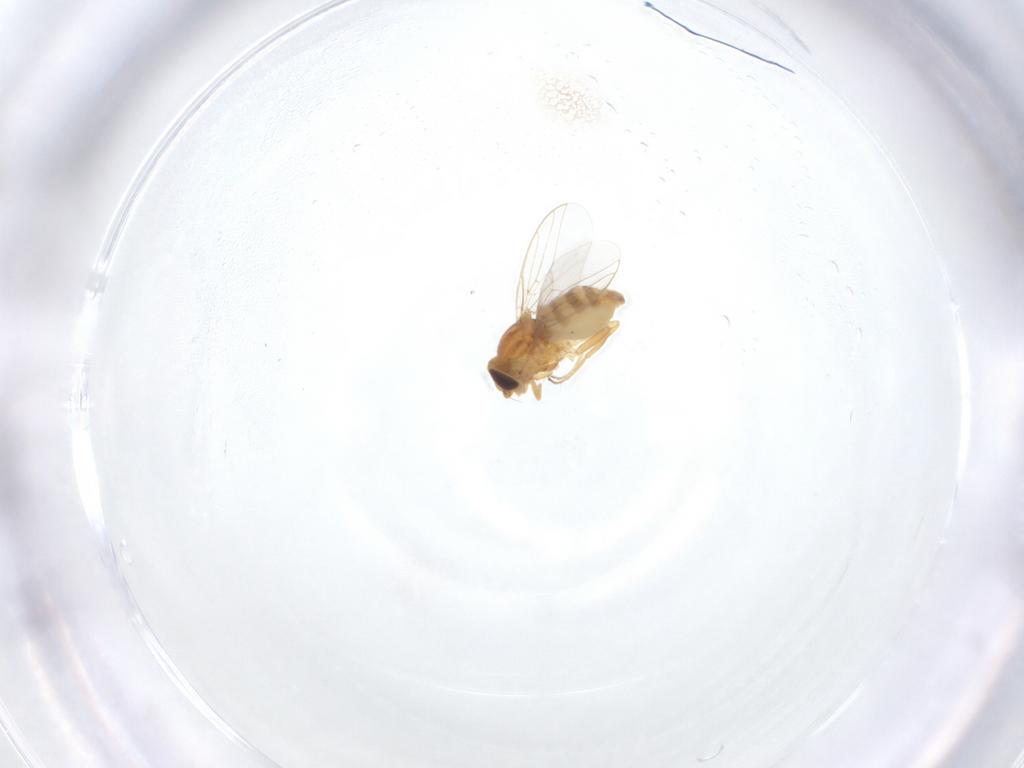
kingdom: Animalia
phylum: Arthropoda
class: Insecta
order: Diptera
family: Chloropidae
